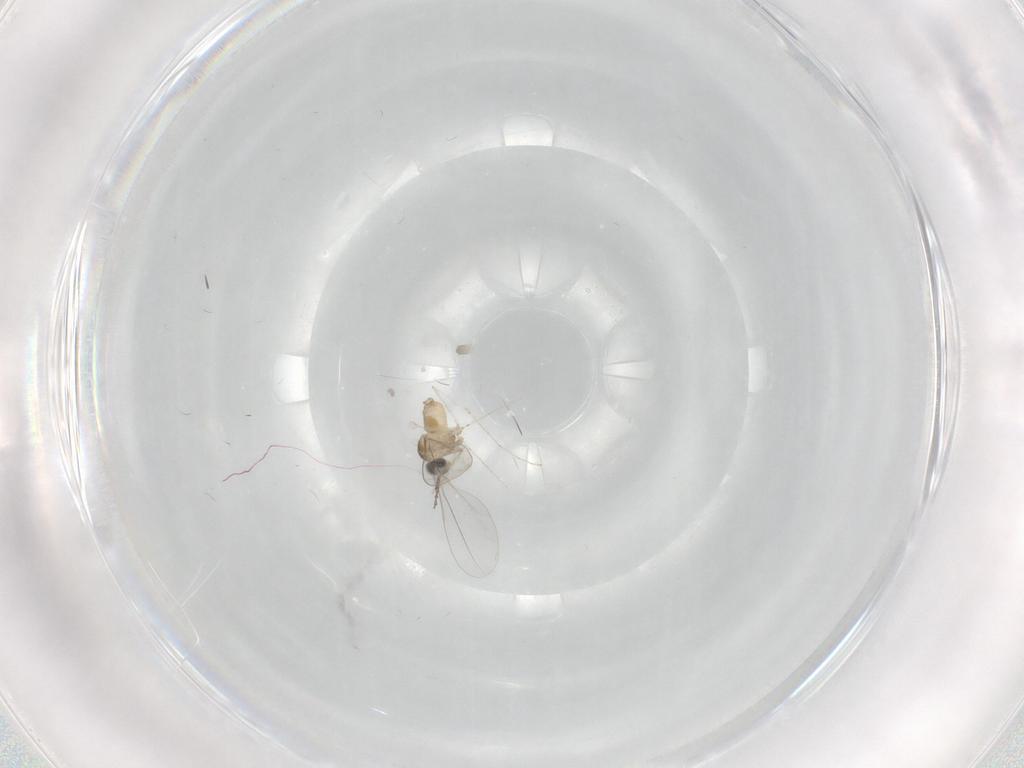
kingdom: Animalia
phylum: Arthropoda
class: Insecta
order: Diptera
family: Cecidomyiidae
